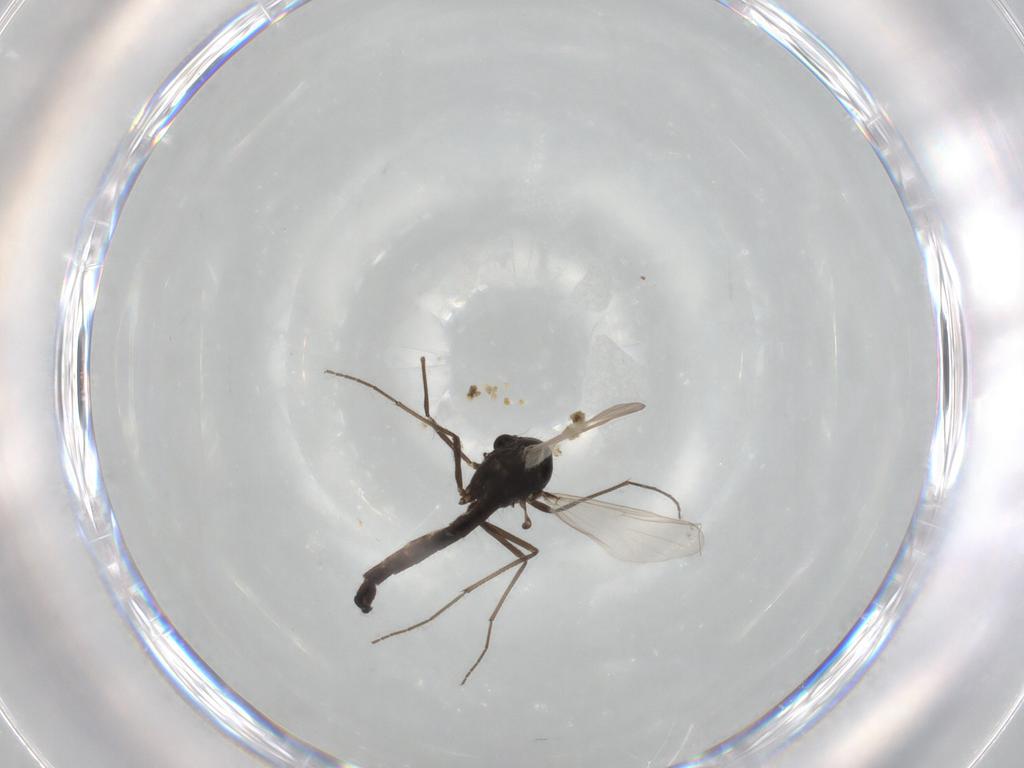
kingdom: Animalia
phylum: Arthropoda
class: Insecta
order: Diptera
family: Chironomidae
